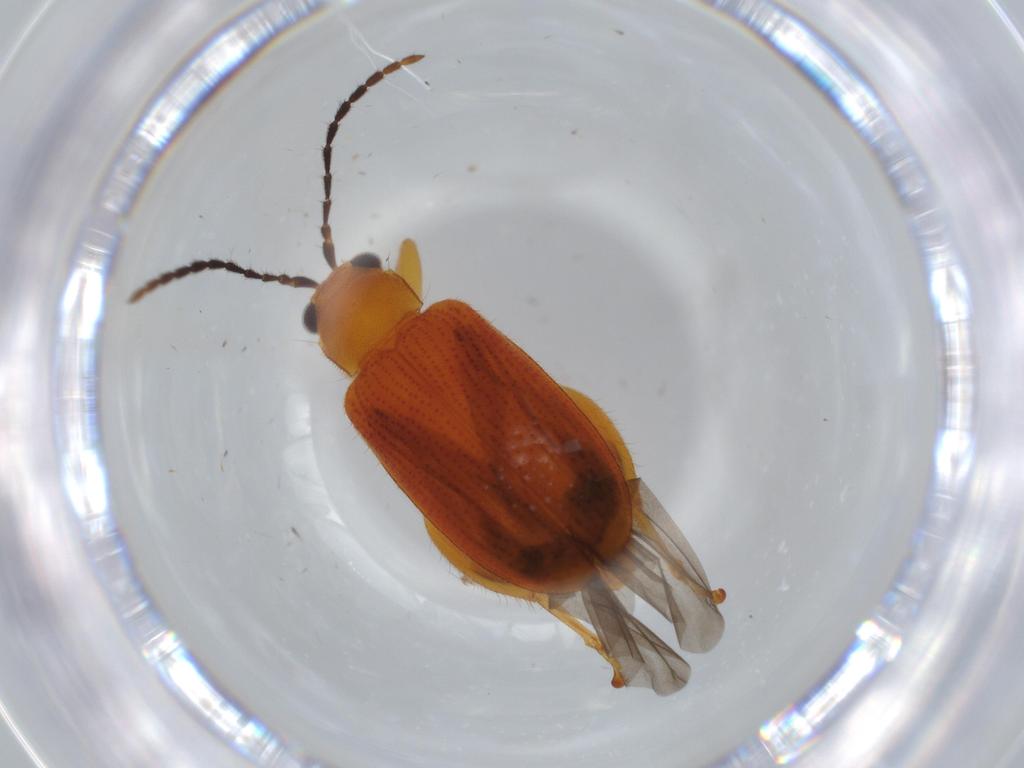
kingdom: Animalia
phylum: Arthropoda
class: Insecta
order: Coleoptera
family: Chrysomelidae
